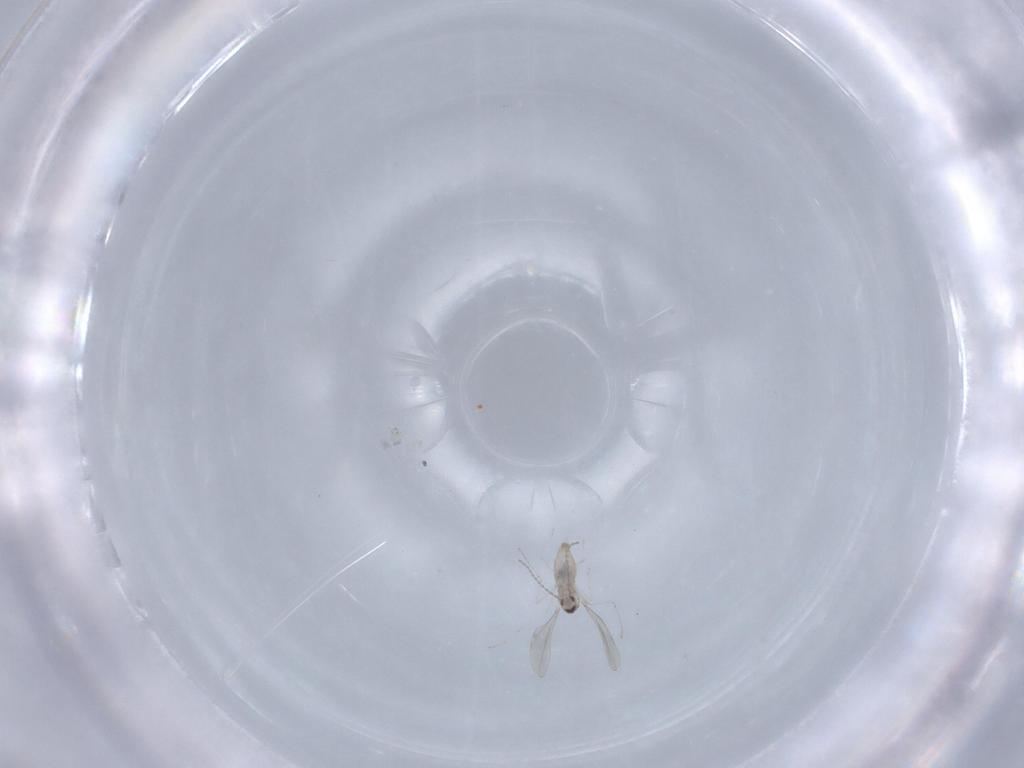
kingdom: Animalia
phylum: Arthropoda
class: Insecta
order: Diptera
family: Cecidomyiidae
